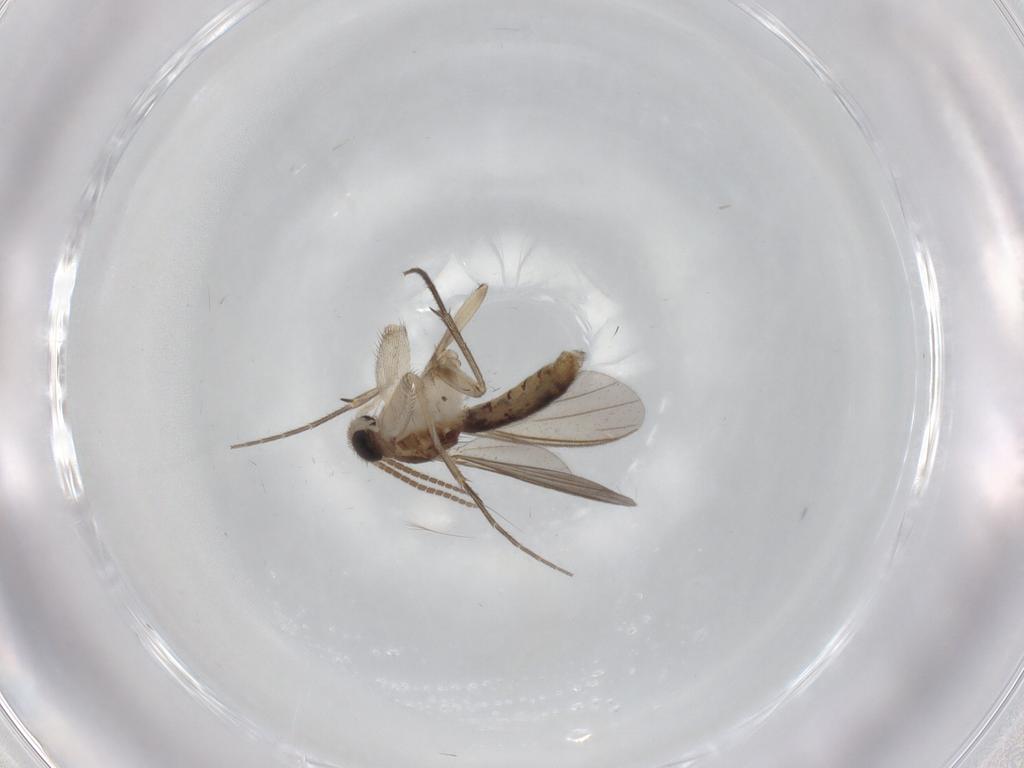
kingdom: Animalia
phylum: Arthropoda
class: Insecta
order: Diptera
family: Mycetophilidae
